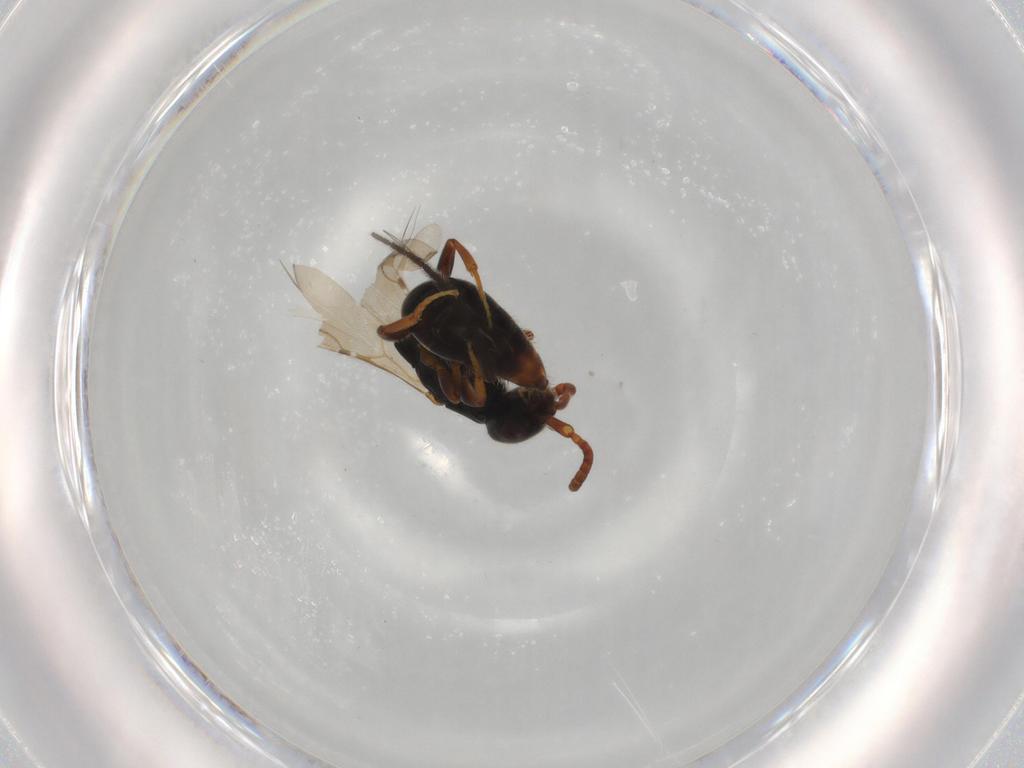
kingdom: Animalia
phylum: Arthropoda
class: Insecta
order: Hymenoptera
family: Bethylidae
